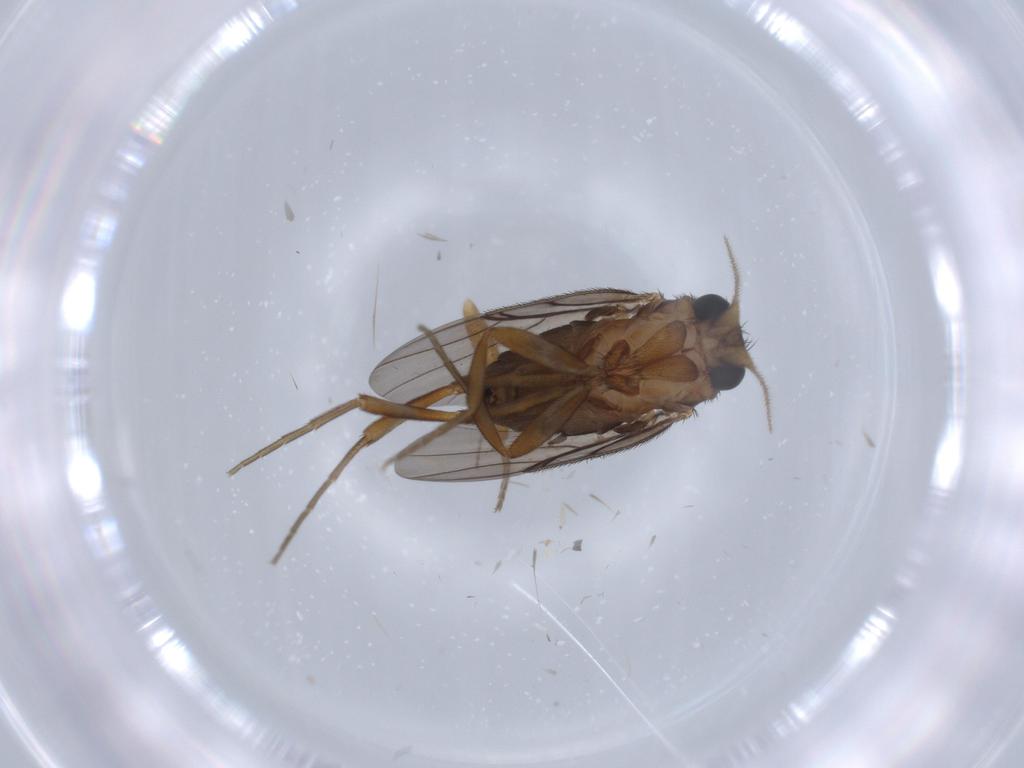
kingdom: Animalia
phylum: Arthropoda
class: Insecta
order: Diptera
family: Phoridae
